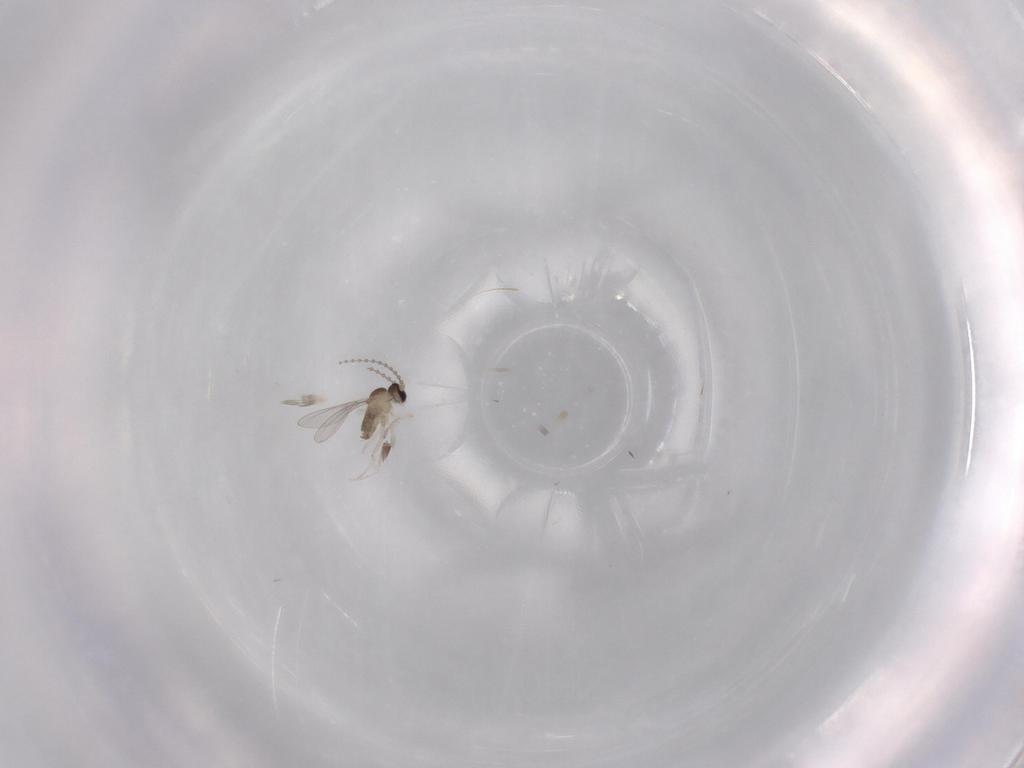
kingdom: Animalia
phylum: Arthropoda
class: Insecta
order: Diptera
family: Cecidomyiidae
